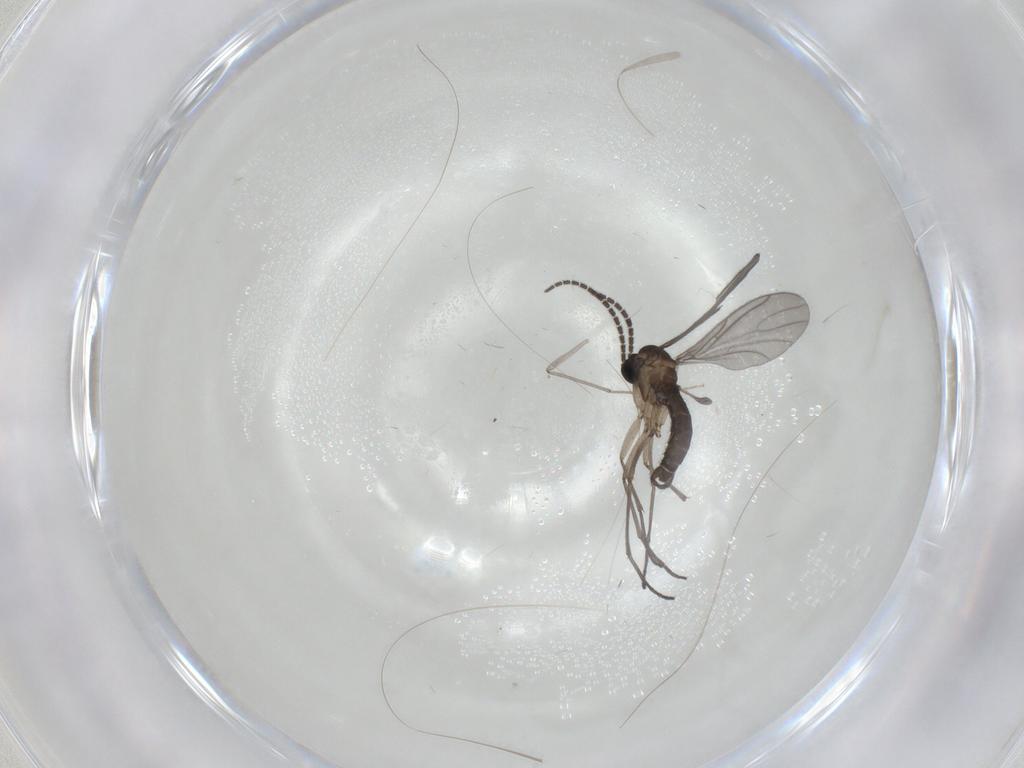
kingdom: Animalia
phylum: Arthropoda
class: Insecta
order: Diptera
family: Sciaridae
